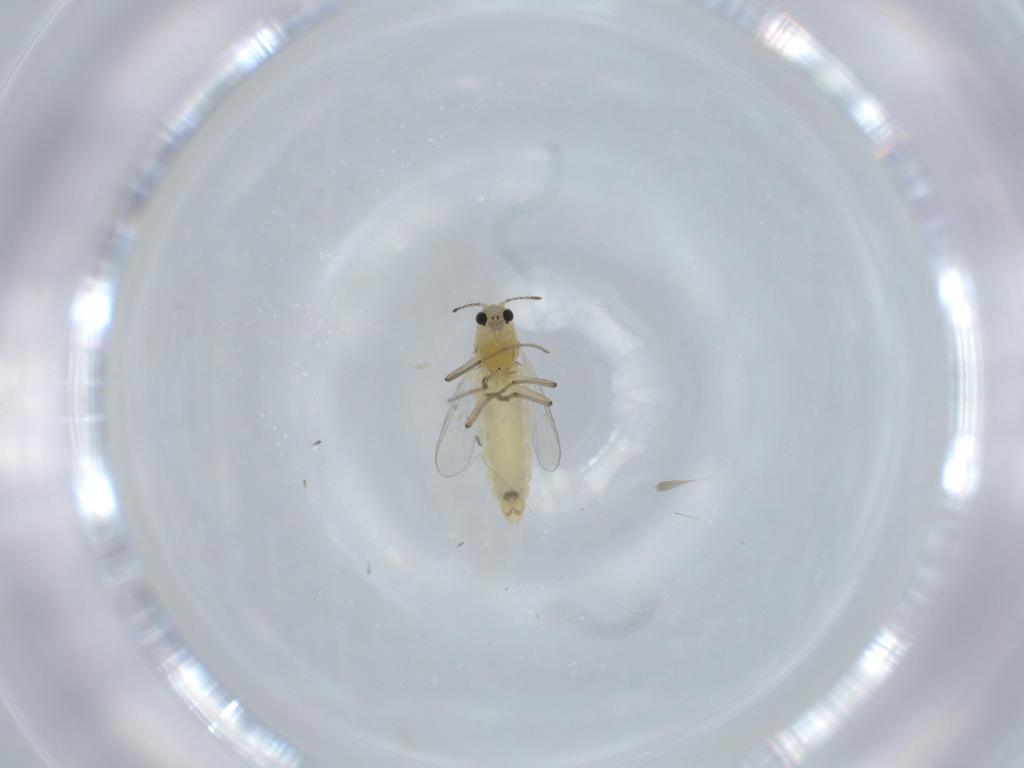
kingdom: Animalia
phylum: Arthropoda
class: Insecta
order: Diptera
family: Chironomidae
